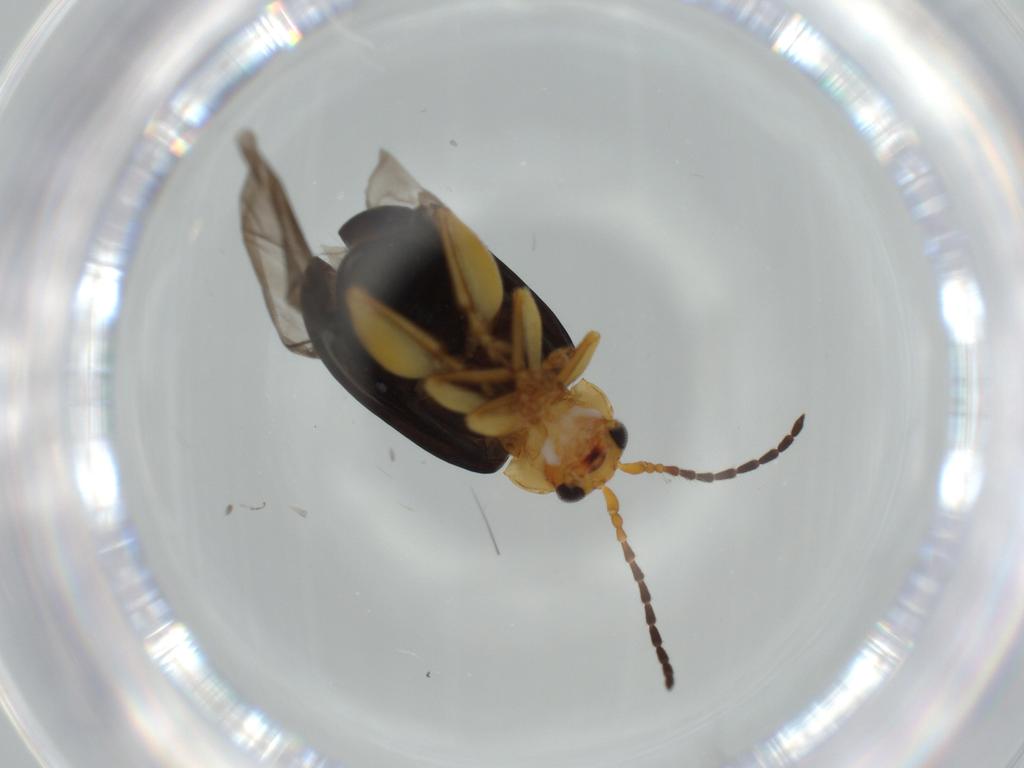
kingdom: Animalia
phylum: Arthropoda
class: Insecta
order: Coleoptera
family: Chrysomelidae
